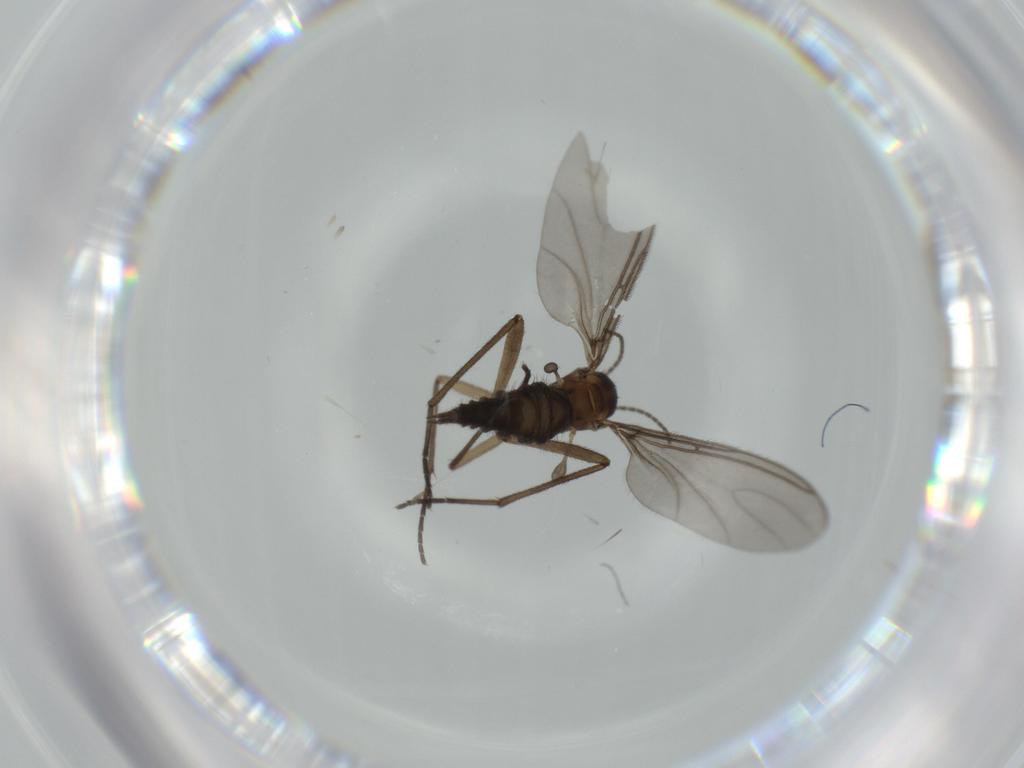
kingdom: Animalia
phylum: Arthropoda
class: Insecta
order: Diptera
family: Sciaridae
